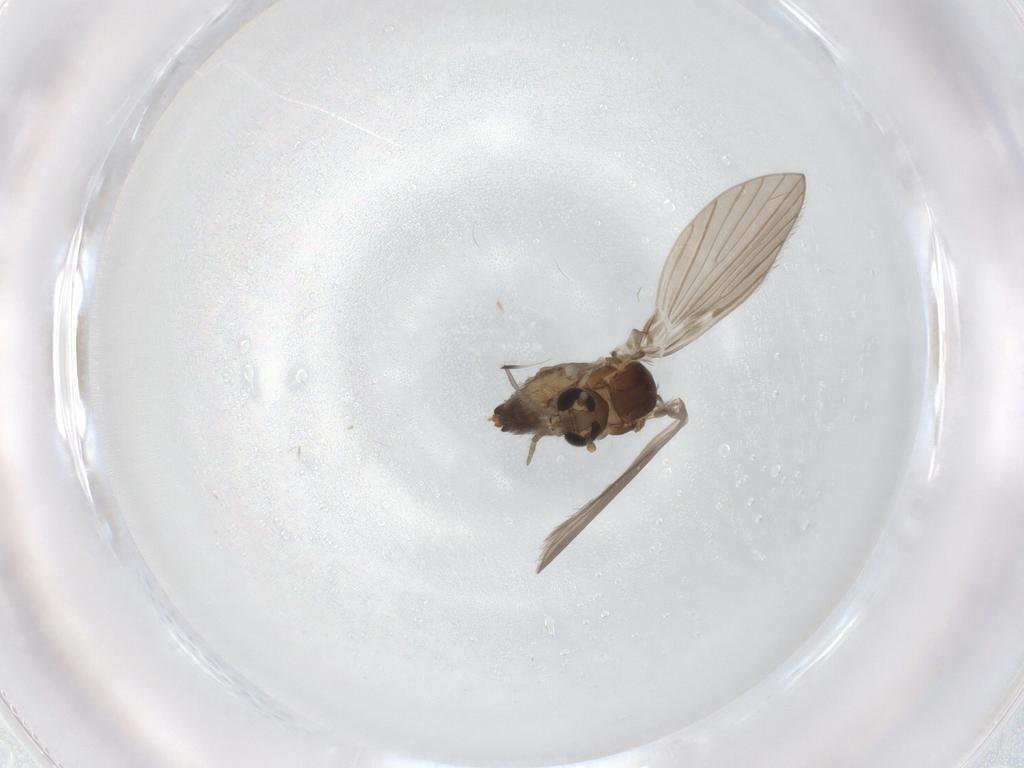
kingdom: Animalia
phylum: Arthropoda
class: Insecta
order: Diptera
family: Psychodidae
